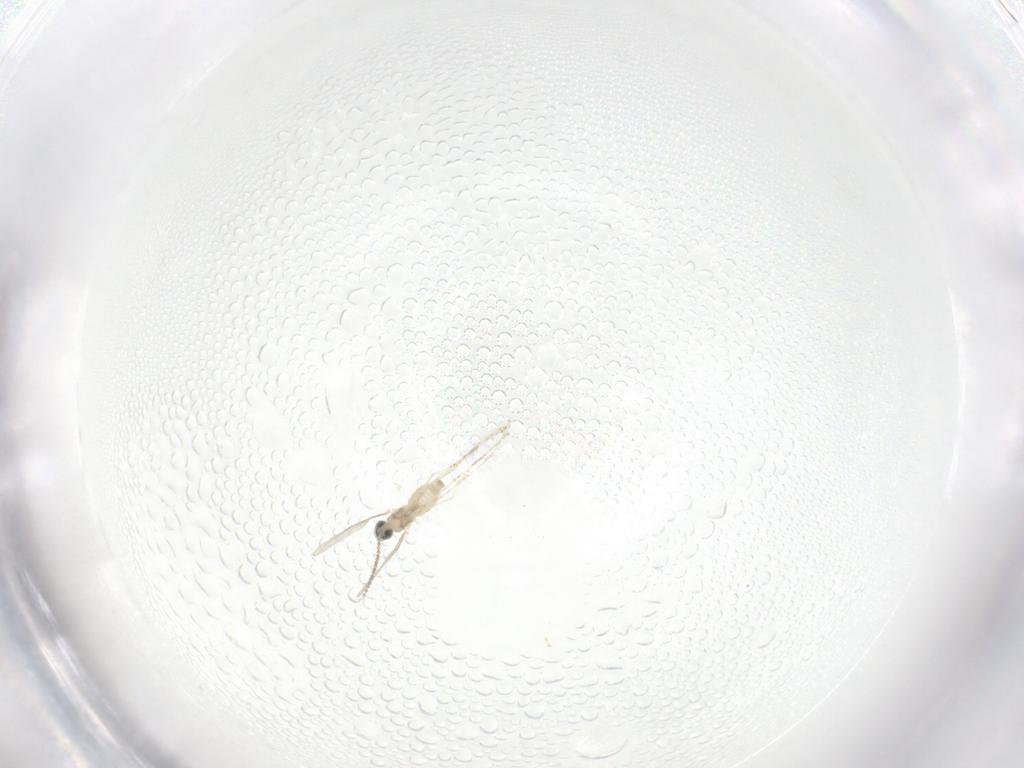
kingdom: Animalia
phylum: Arthropoda
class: Insecta
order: Diptera
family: Cecidomyiidae
